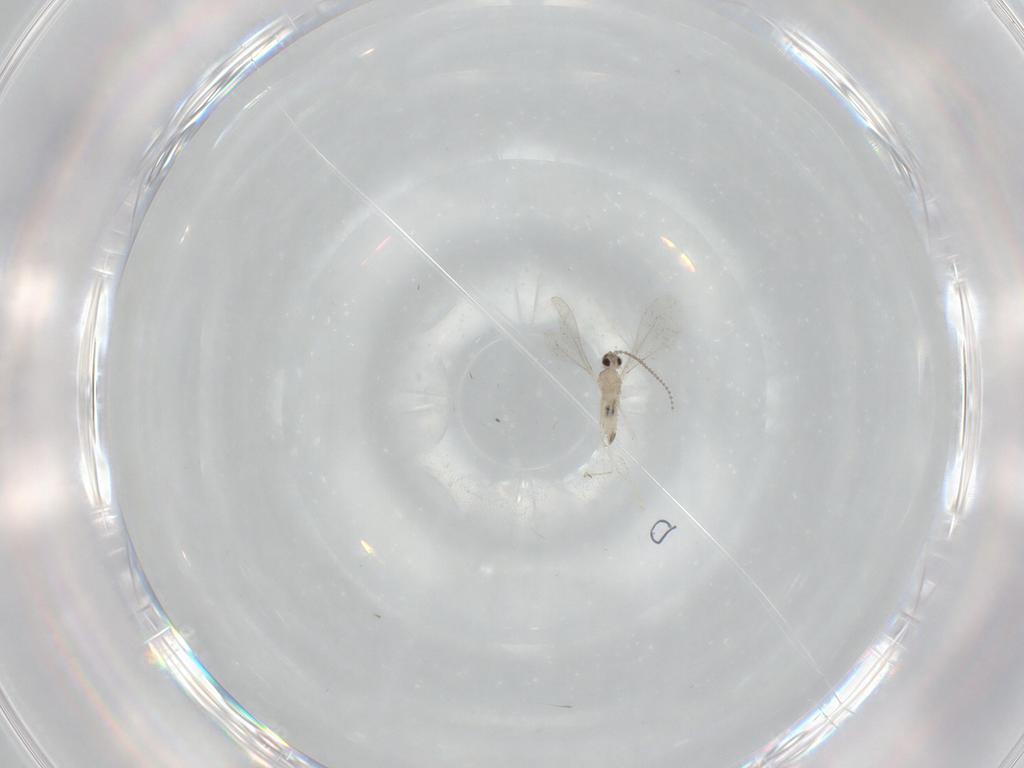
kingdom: Animalia
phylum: Arthropoda
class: Insecta
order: Diptera
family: Cecidomyiidae
